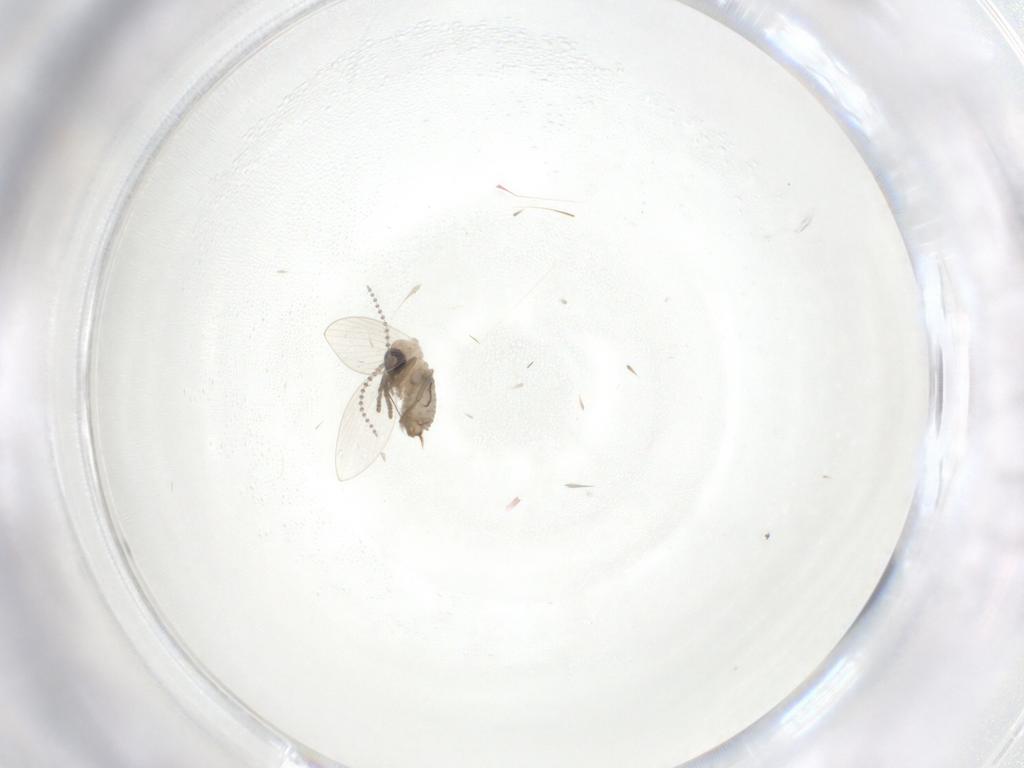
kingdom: Animalia
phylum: Arthropoda
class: Insecta
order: Diptera
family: Psychodidae
